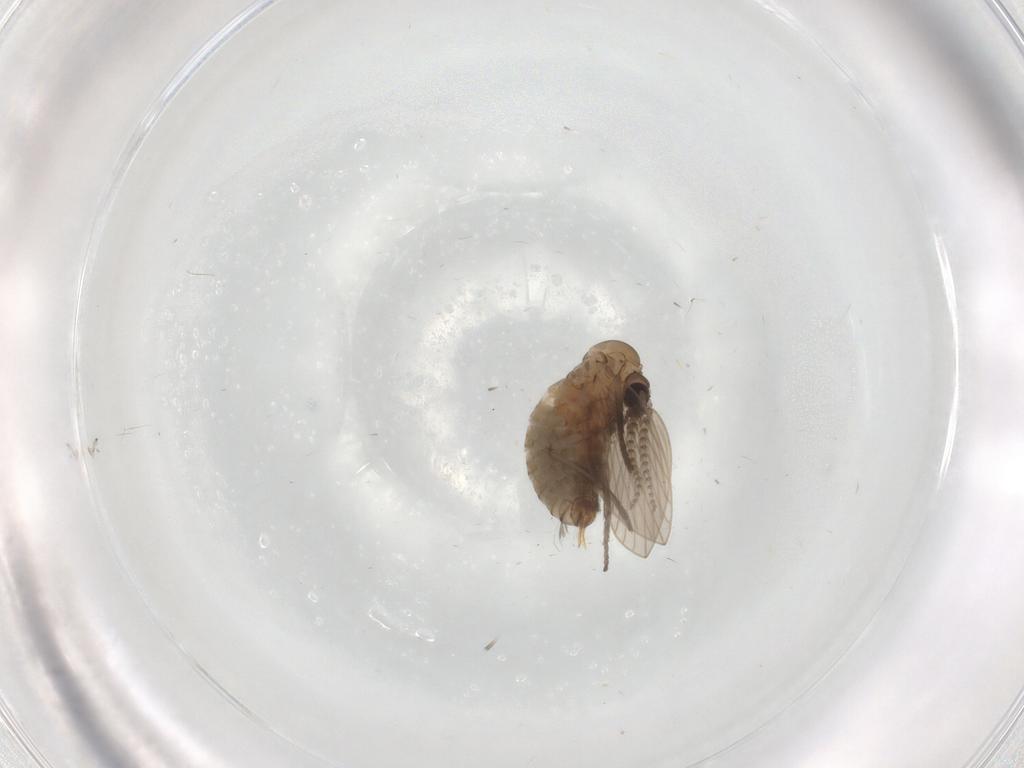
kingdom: Animalia
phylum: Arthropoda
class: Insecta
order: Diptera
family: Psychodidae
